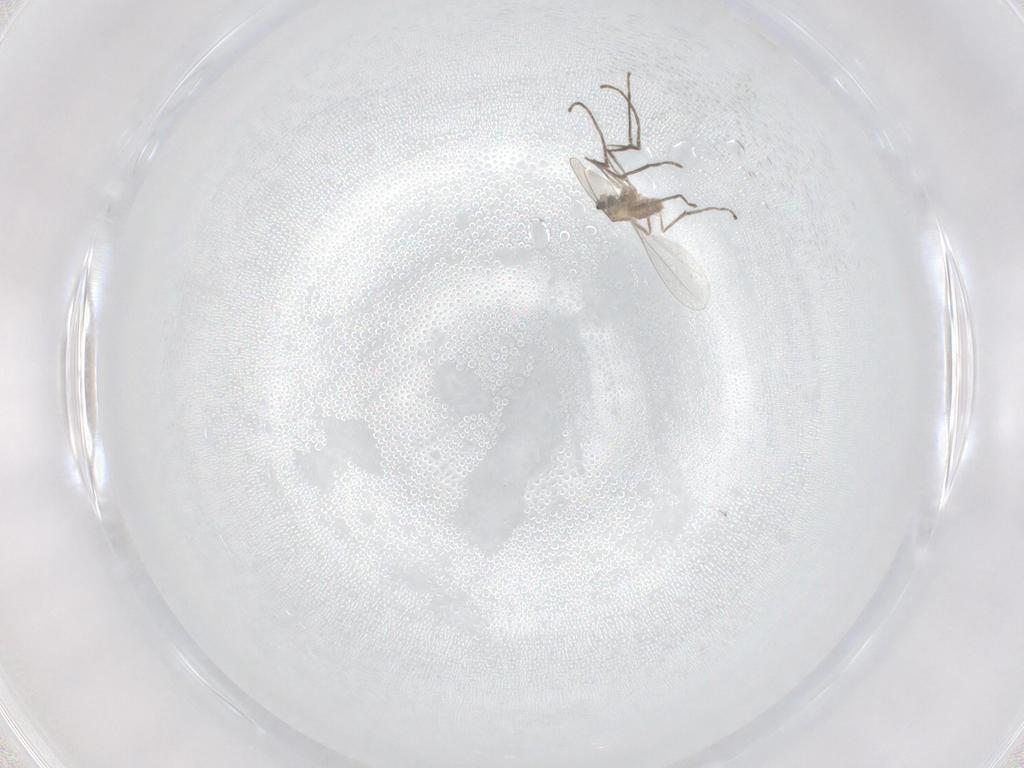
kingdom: Animalia
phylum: Arthropoda
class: Insecta
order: Diptera
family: Cecidomyiidae
